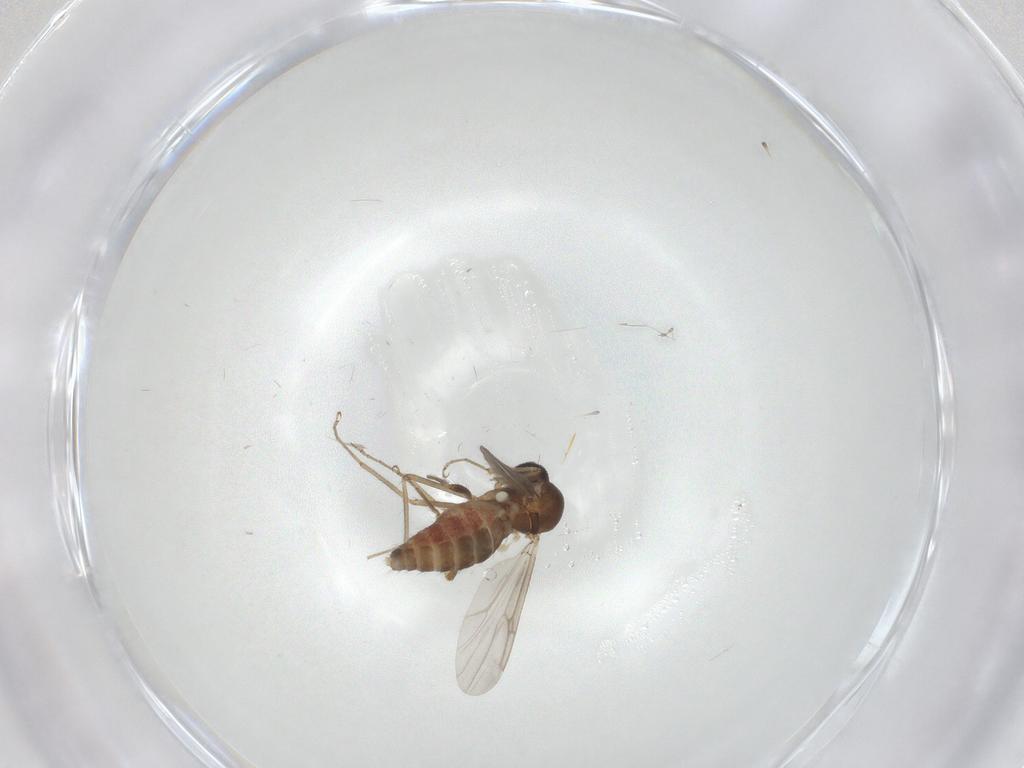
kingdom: Animalia
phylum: Arthropoda
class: Insecta
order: Diptera
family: Ceratopogonidae
